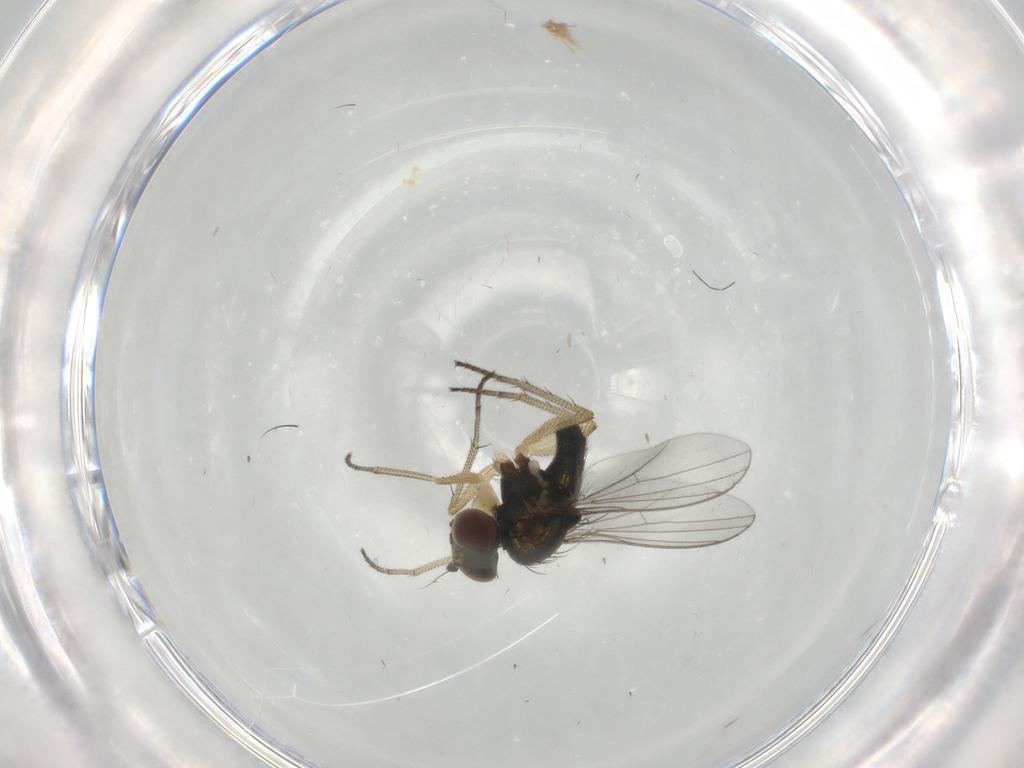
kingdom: Animalia
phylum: Arthropoda
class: Insecta
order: Diptera
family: Dolichopodidae
